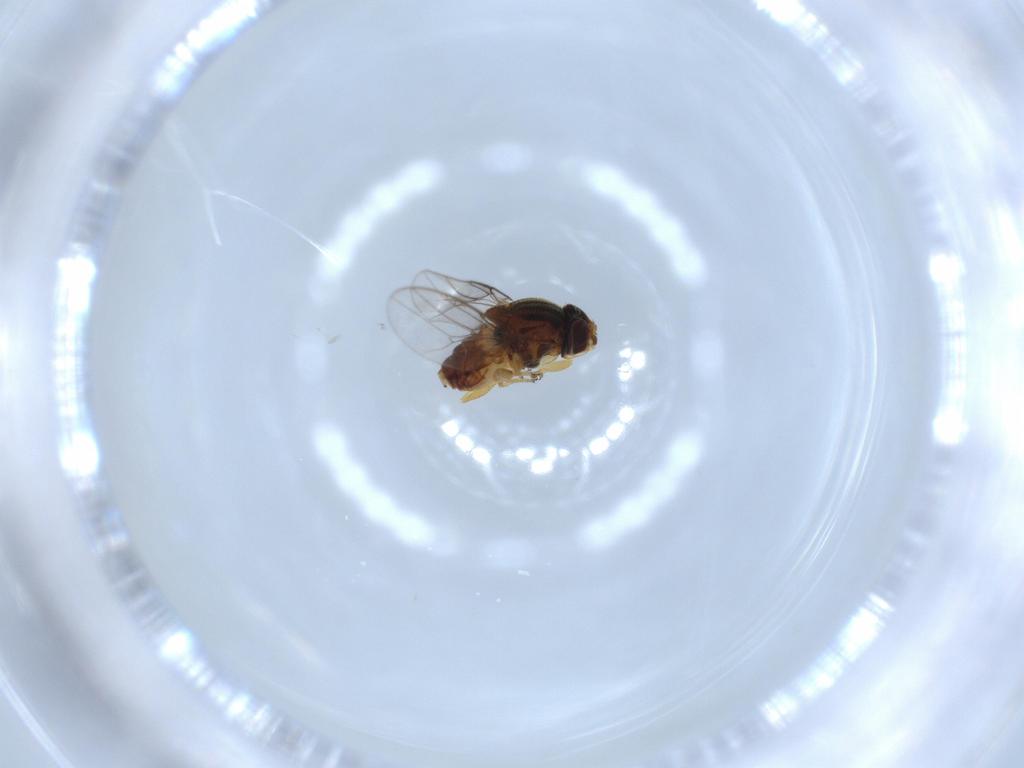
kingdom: Animalia
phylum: Arthropoda
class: Insecta
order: Diptera
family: Chloropidae
